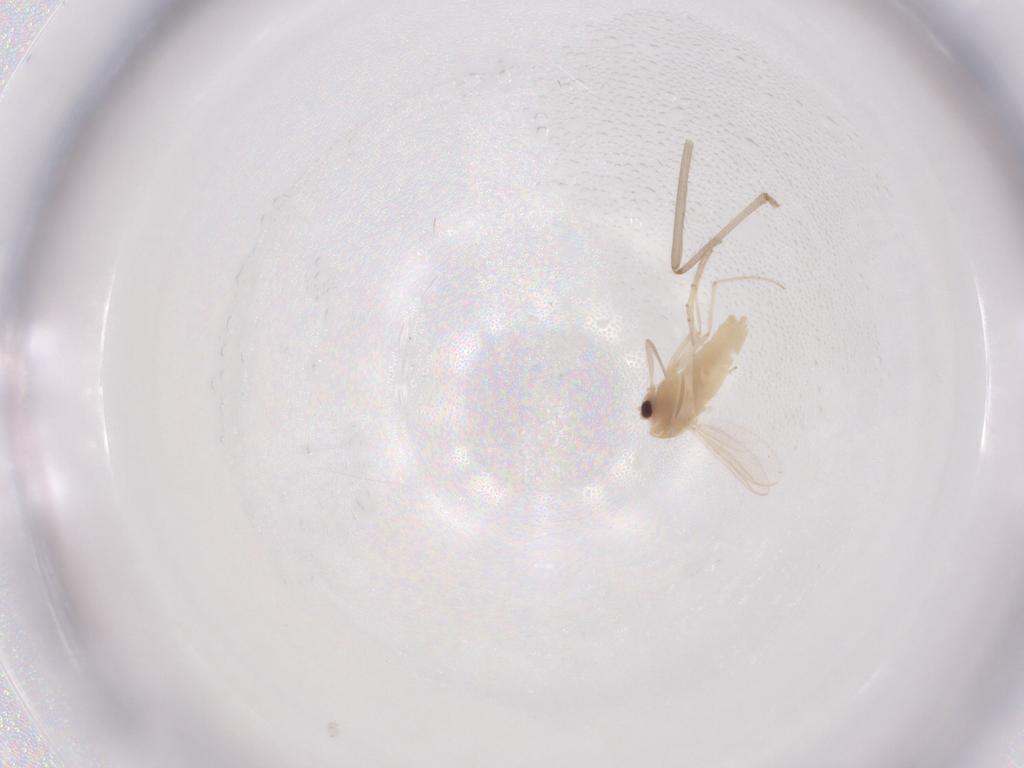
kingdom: Animalia
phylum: Arthropoda
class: Insecta
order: Diptera
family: Chironomidae
